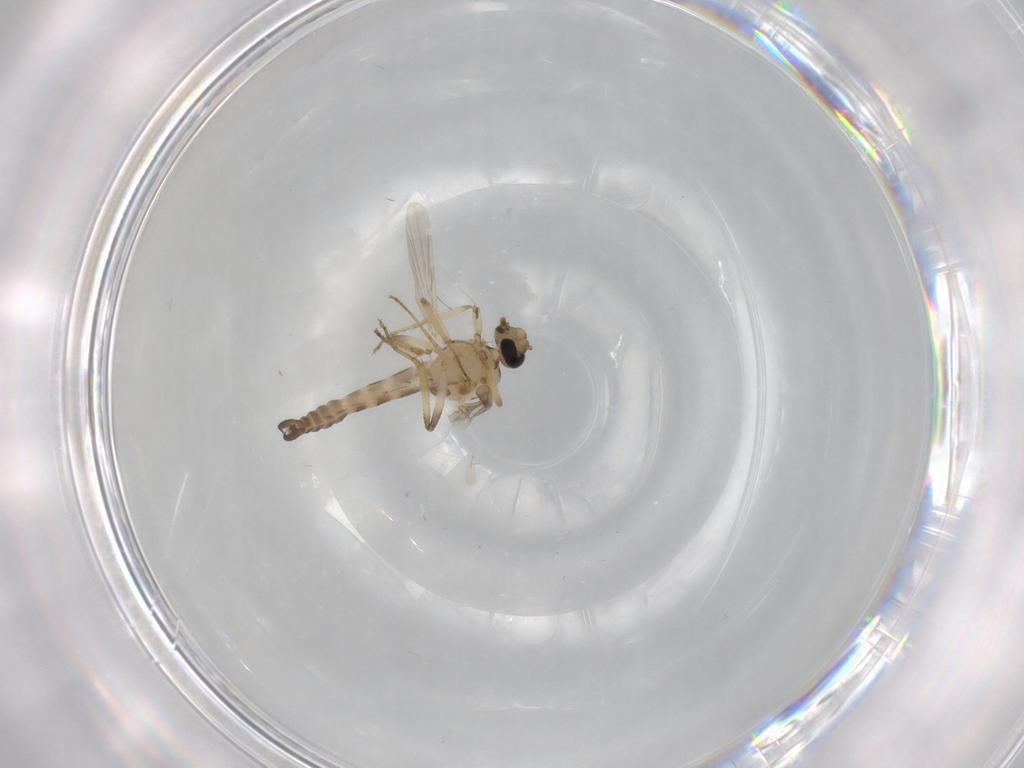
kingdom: Animalia
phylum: Arthropoda
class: Insecta
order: Diptera
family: Ceratopogonidae
